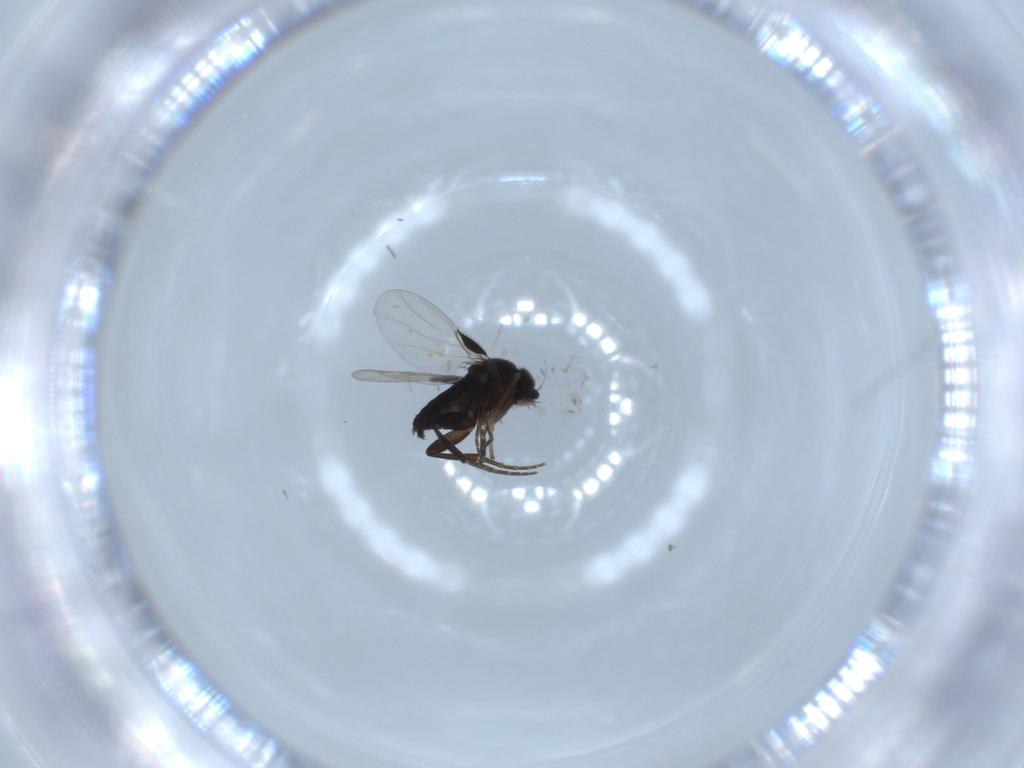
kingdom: Animalia
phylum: Arthropoda
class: Insecta
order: Diptera
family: Phoridae
